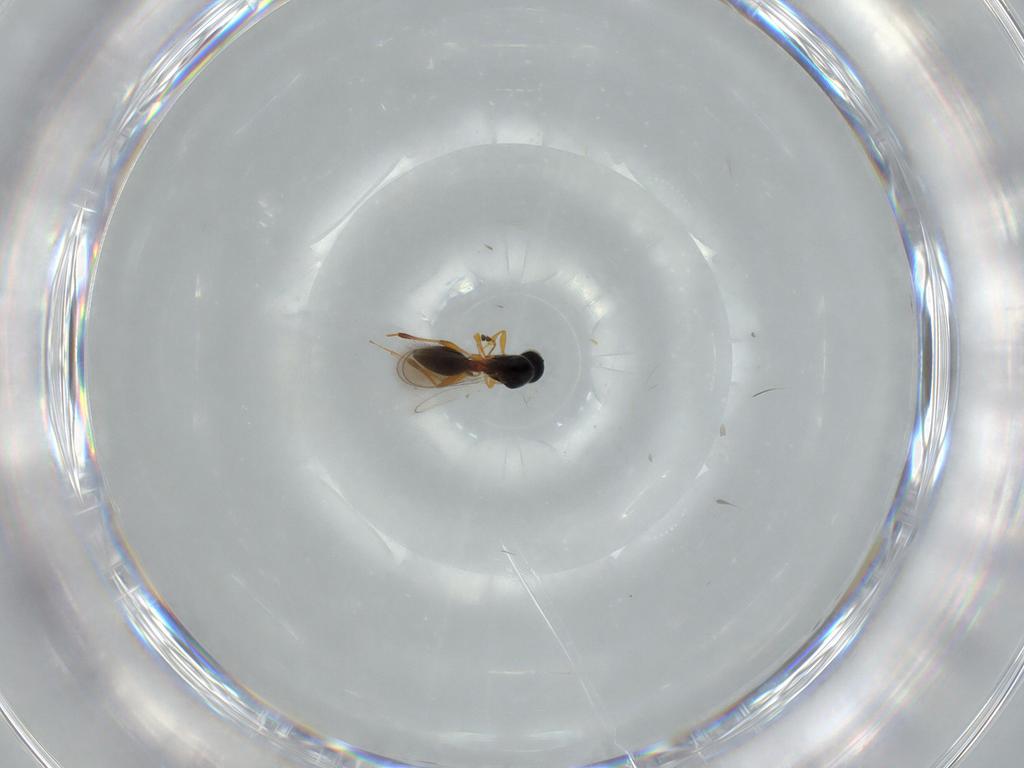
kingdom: Animalia
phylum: Arthropoda
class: Insecta
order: Hymenoptera
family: Platygastridae
